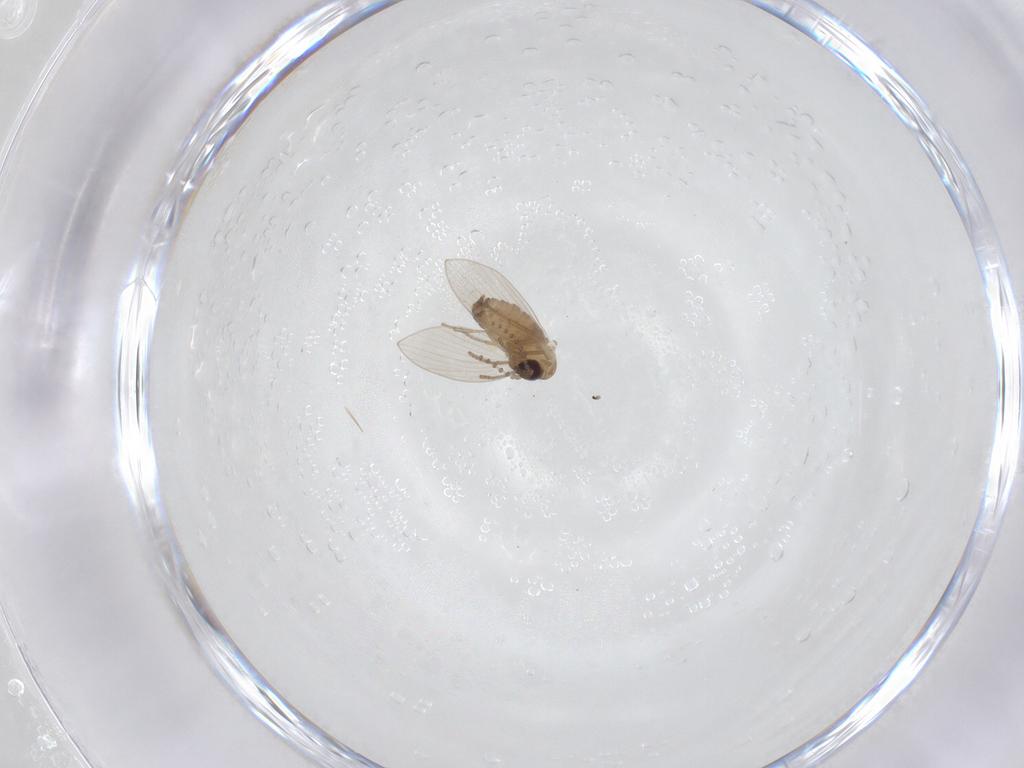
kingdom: Animalia
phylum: Arthropoda
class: Insecta
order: Diptera
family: Psychodidae
